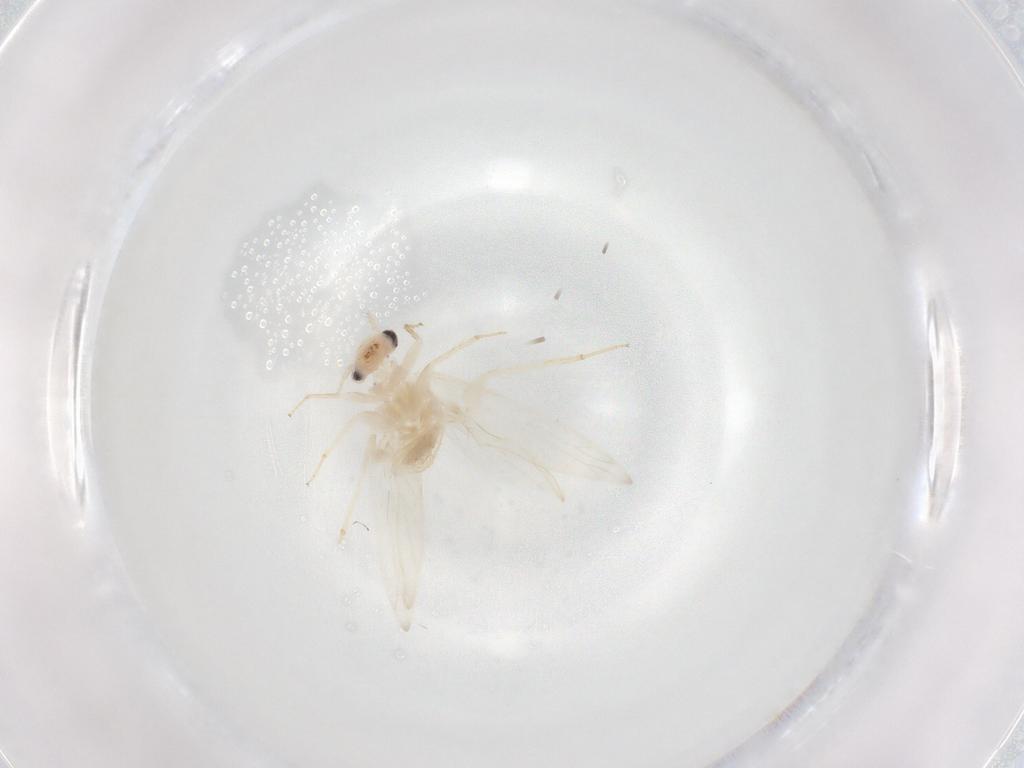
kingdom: Animalia
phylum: Arthropoda
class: Insecta
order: Psocodea
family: Lepidopsocidae
